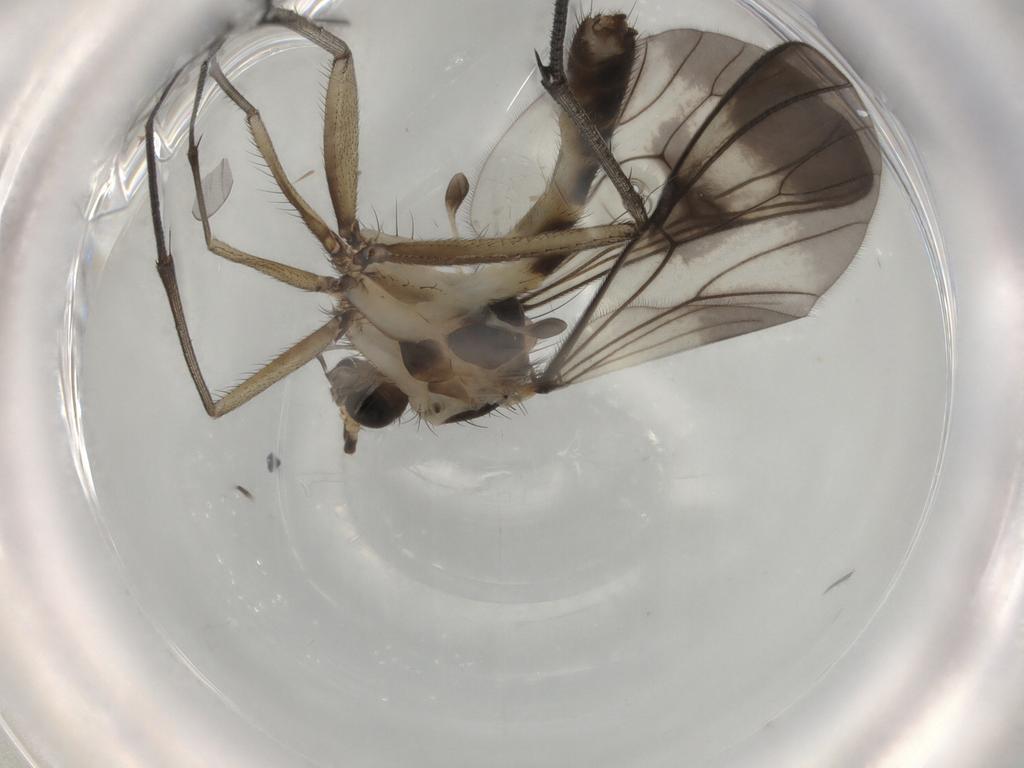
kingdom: Animalia
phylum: Arthropoda
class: Insecta
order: Diptera
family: Mycetophilidae
